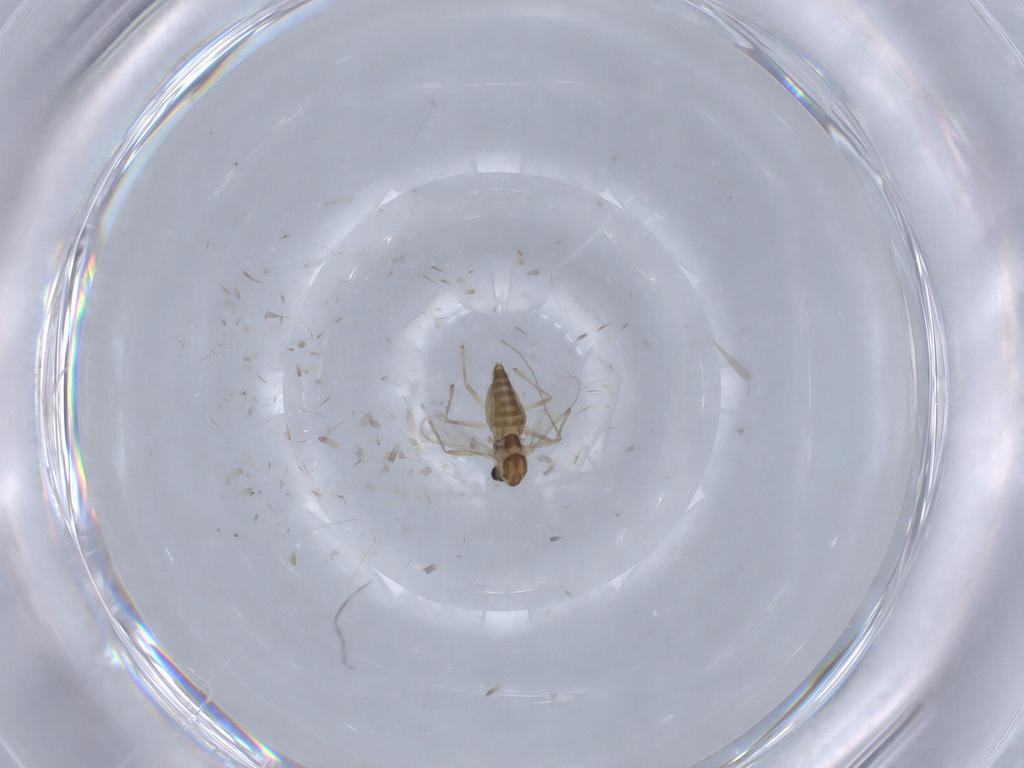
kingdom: Animalia
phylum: Arthropoda
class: Insecta
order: Diptera
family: Chironomidae
